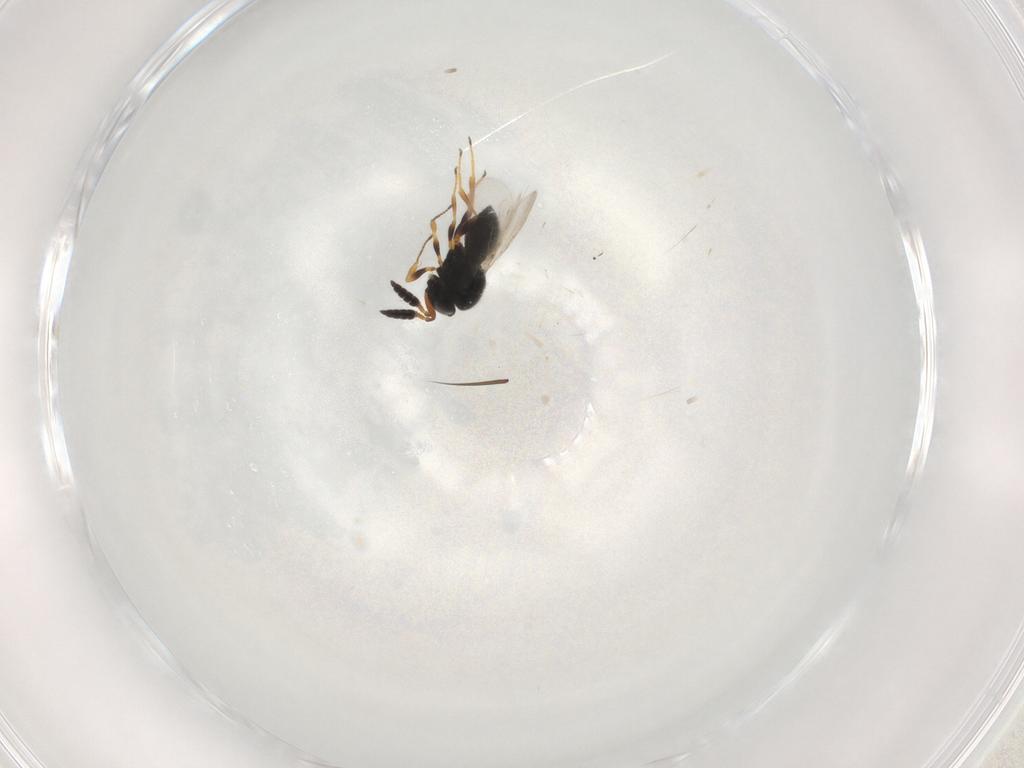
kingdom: Animalia
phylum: Arthropoda
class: Insecta
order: Hymenoptera
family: Scelionidae
